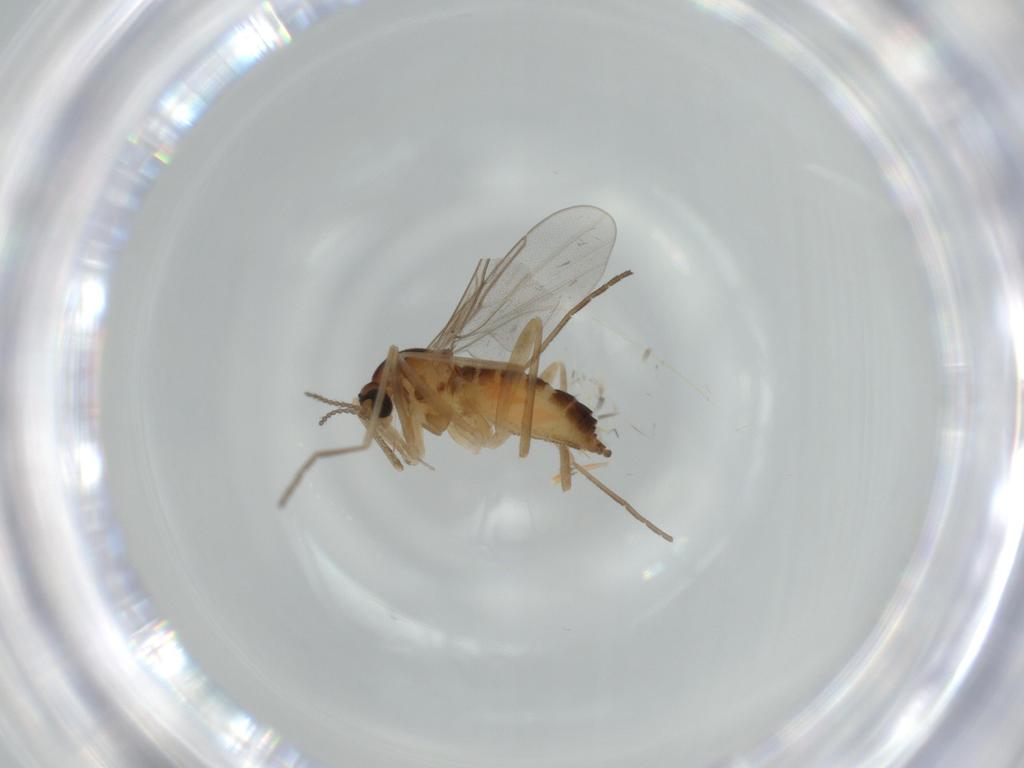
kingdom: Animalia
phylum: Arthropoda
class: Insecta
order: Diptera
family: Cecidomyiidae
